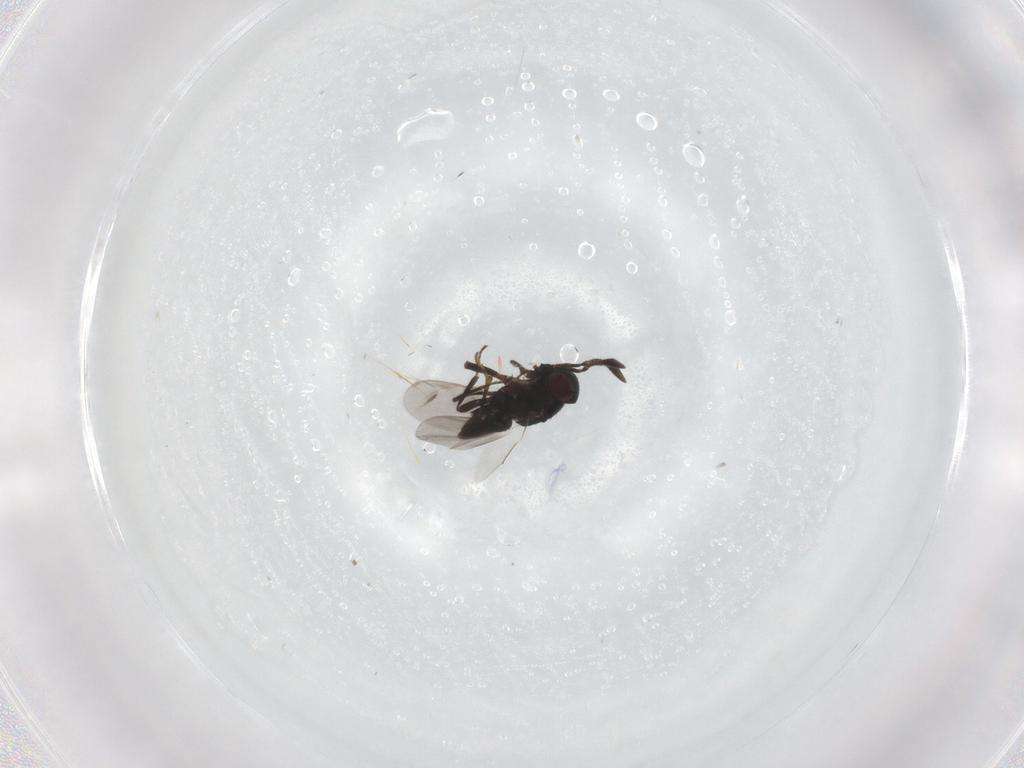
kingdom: Animalia
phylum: Arthropoda
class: Insecta
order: Hymenoptera
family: Encyrtidae
